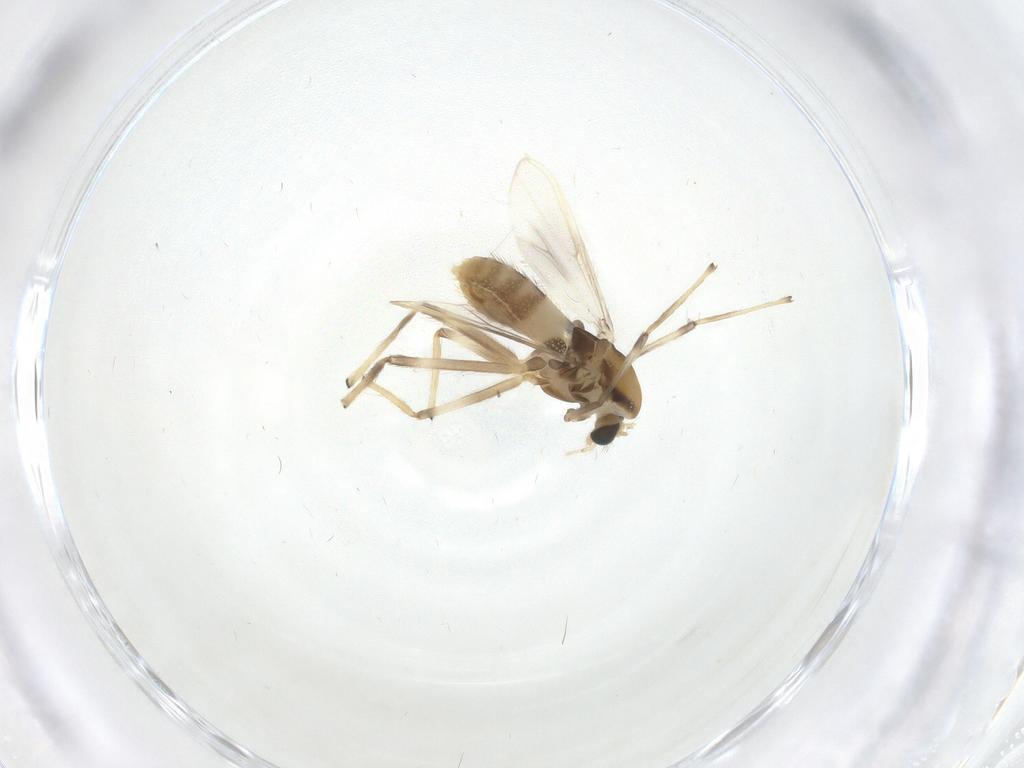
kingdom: Animalia
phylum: Arthropoda
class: Insecta
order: Diptera
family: Chironomidae
